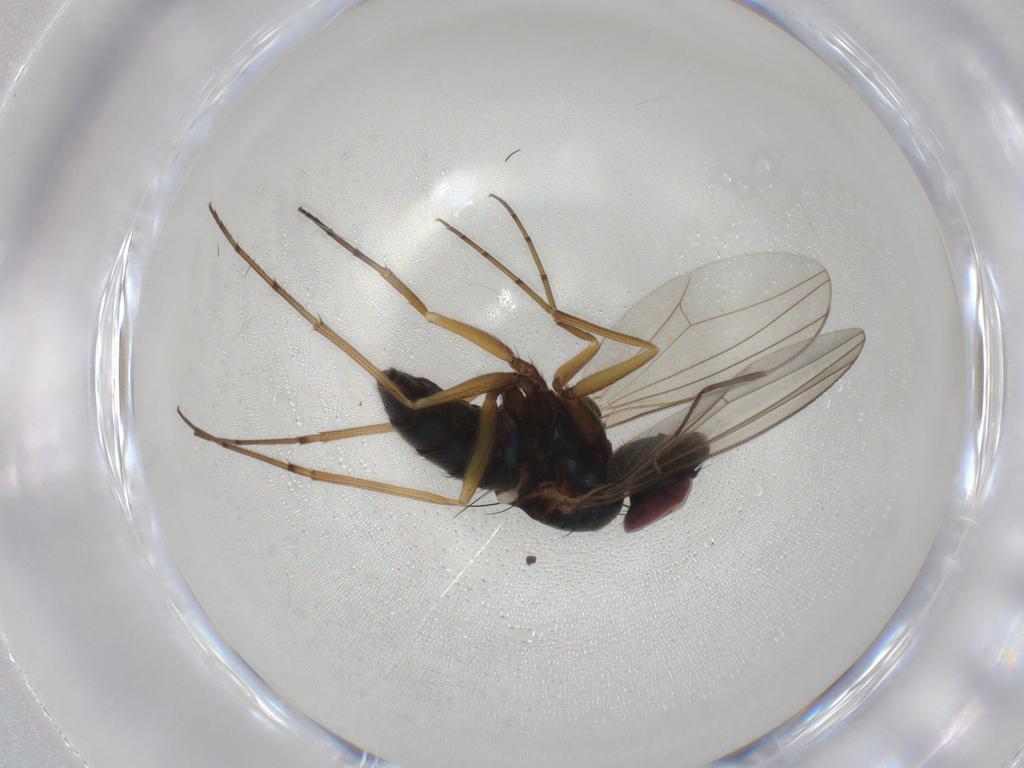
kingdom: Animalia
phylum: Arthropoda
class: Insecta
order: Diptera
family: Dolichopodidae
